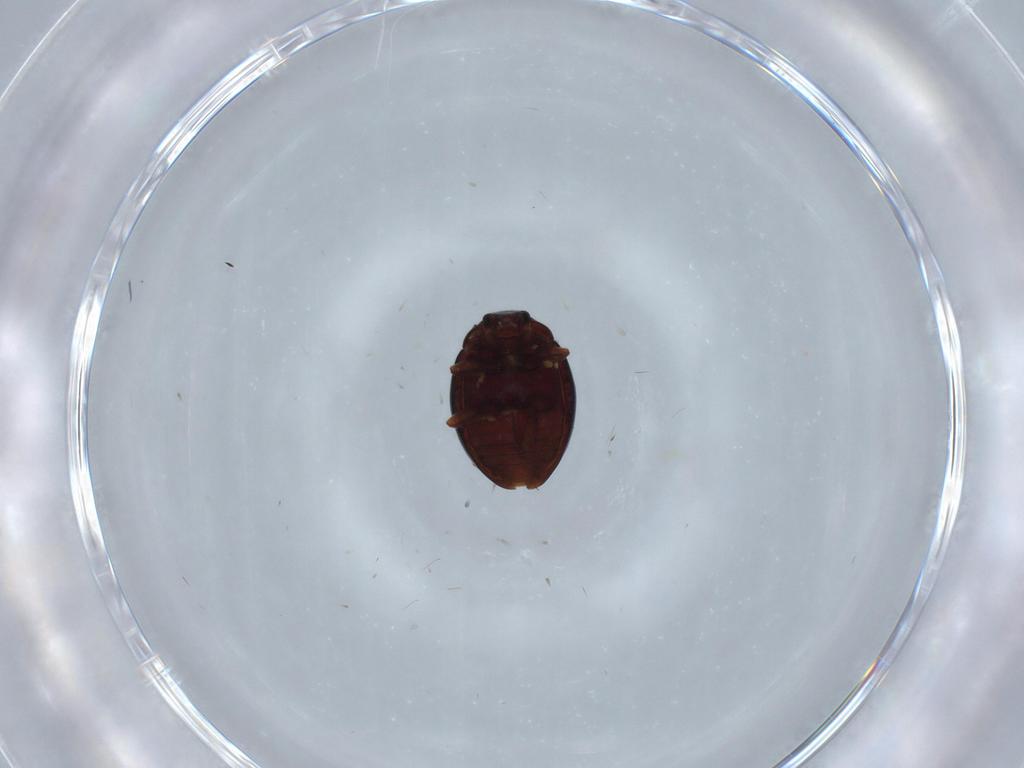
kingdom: Animalia
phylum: Arthropoda
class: Insecta
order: Coleoptera
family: Coccinellidae
